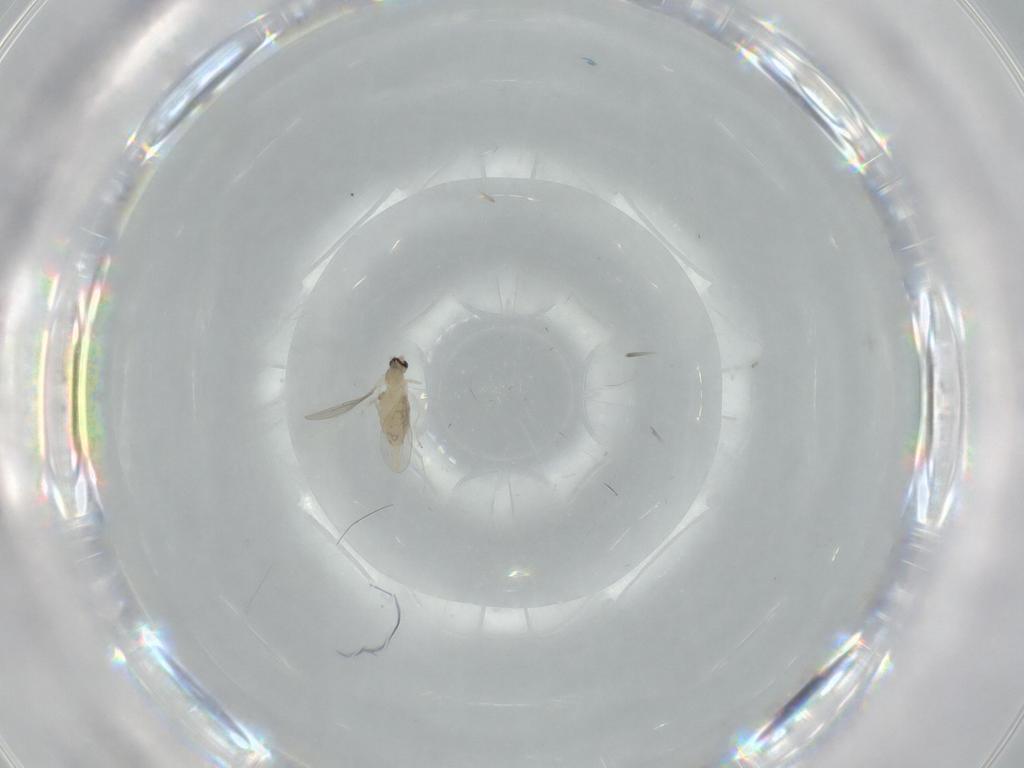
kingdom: Animalia
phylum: Arthropoda
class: Insecta
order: Diptera
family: Cecidomyiidae
